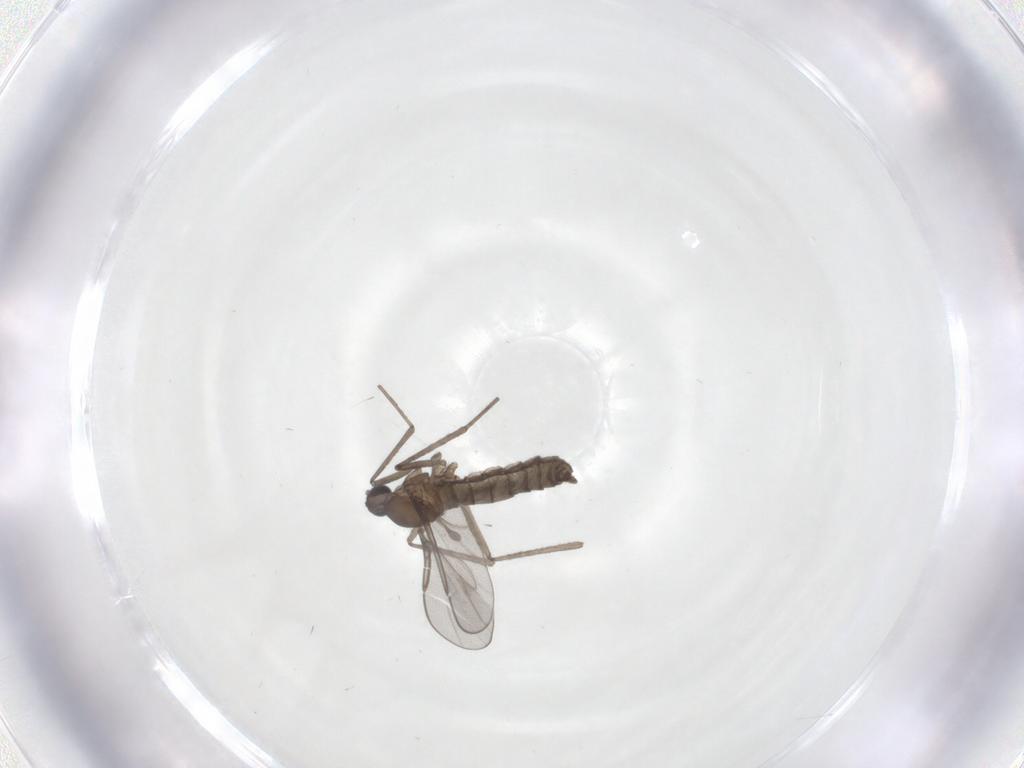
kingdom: Animalia
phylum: Arthropoda
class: Insecta
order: Diptera
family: Cecidomyiidae
